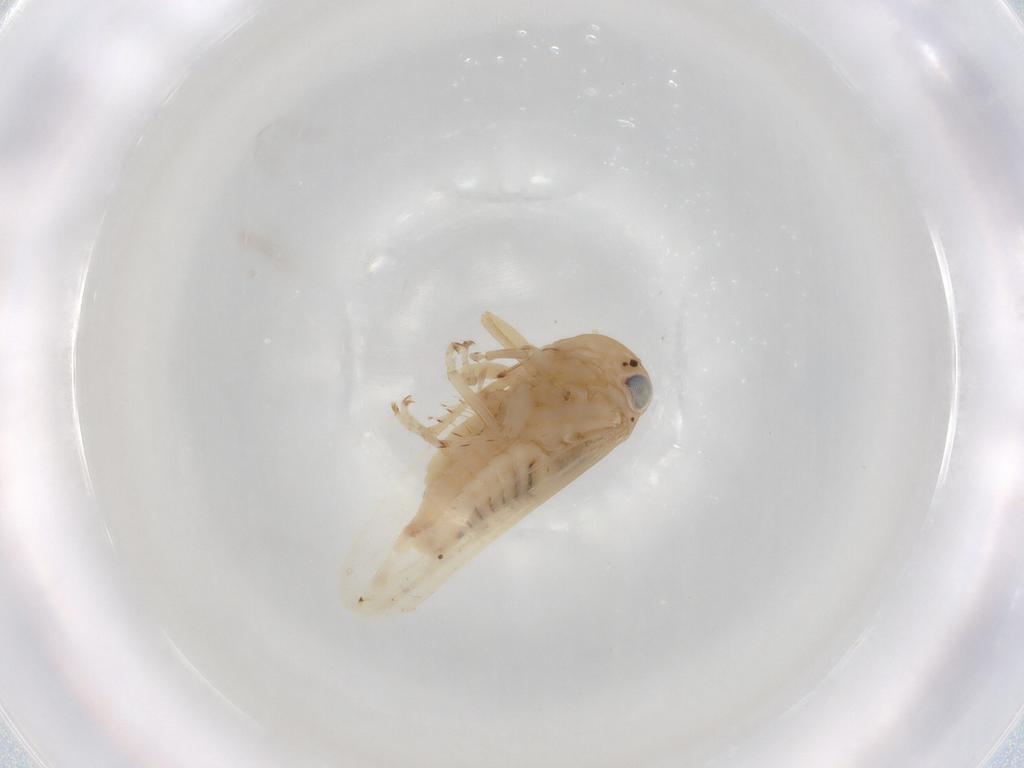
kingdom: Animalia
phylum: Arthropoda
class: Insecta
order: Hemiptera
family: Cicadellidae
